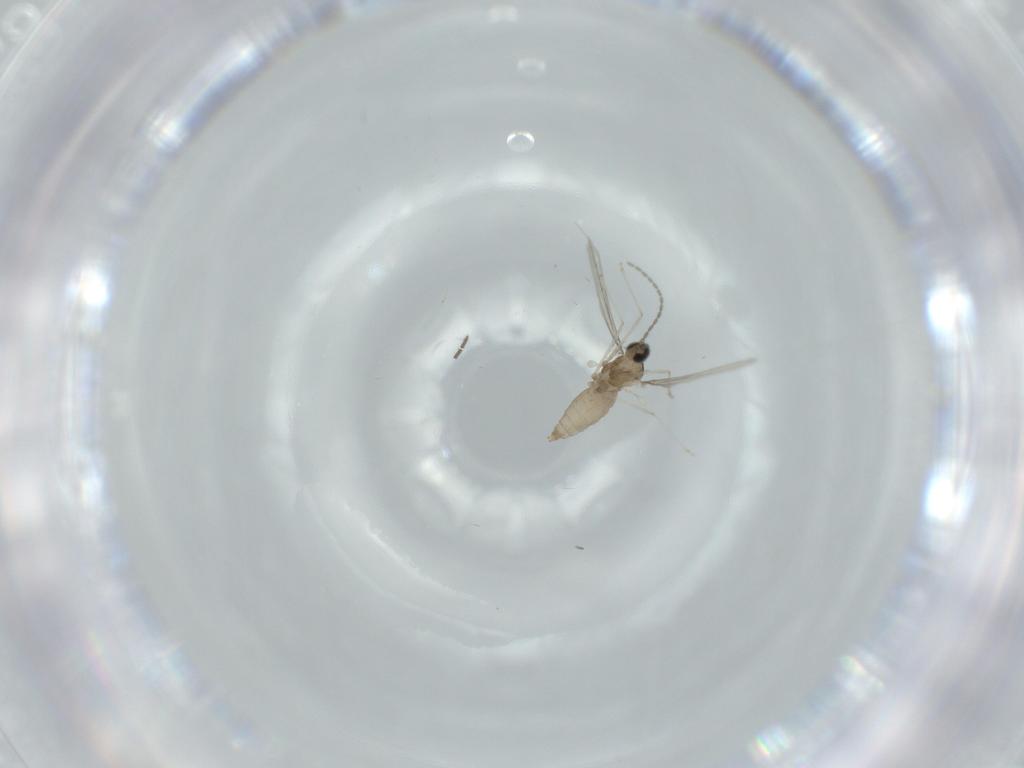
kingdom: Animalia
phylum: Arthropoda
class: Insecta
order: Diptera
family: Cecidomyiidae
